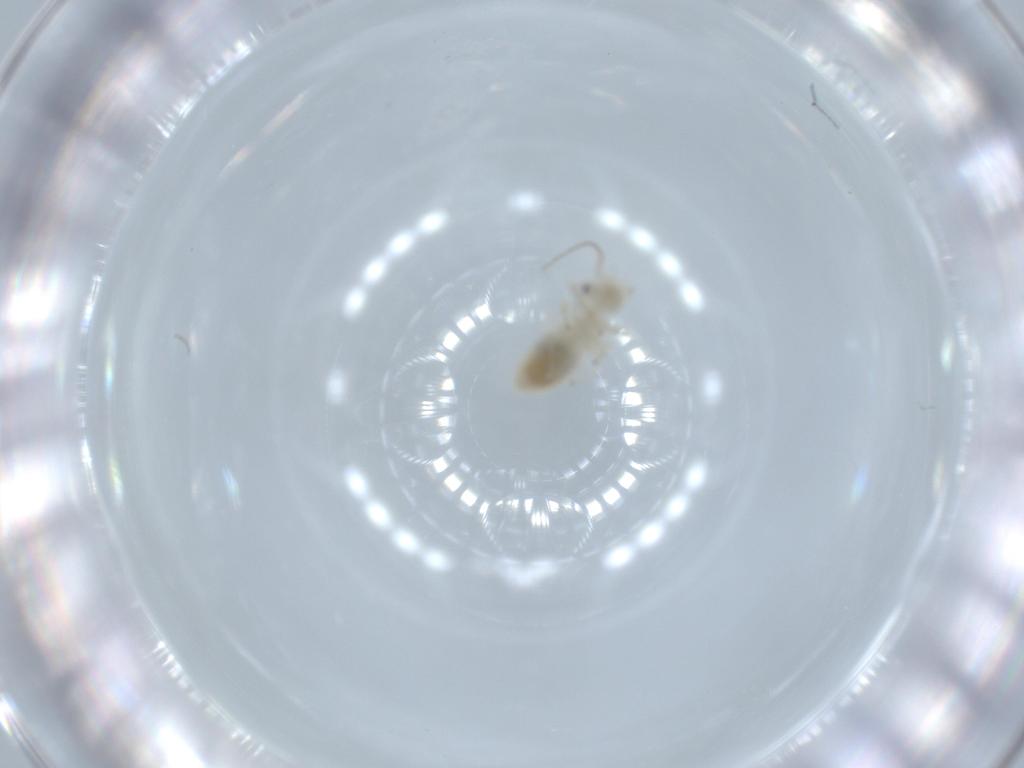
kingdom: Animalia
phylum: Arthropoda
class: Insecta
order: Psocodea
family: Caeciliusidae
